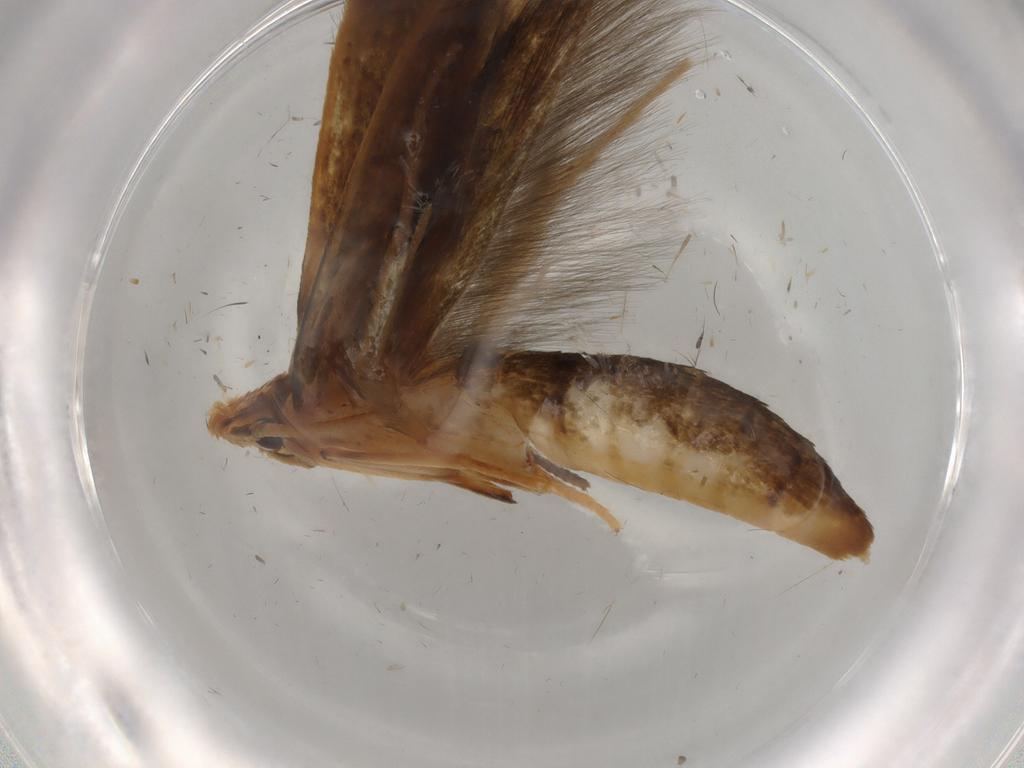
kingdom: Animalia
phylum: Arthropoda
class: Insecta
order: Lepidoptera
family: Tineidae
